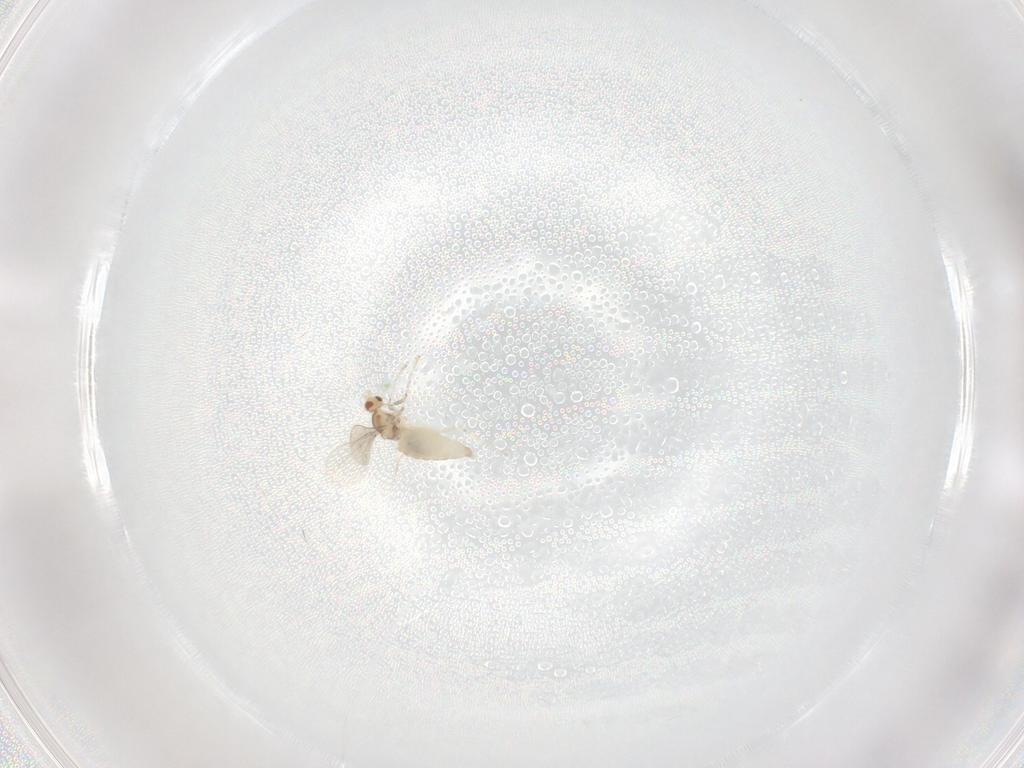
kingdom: Animalia
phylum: Arthropoda
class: Insecta
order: Diptera
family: Cecidomyiidae
